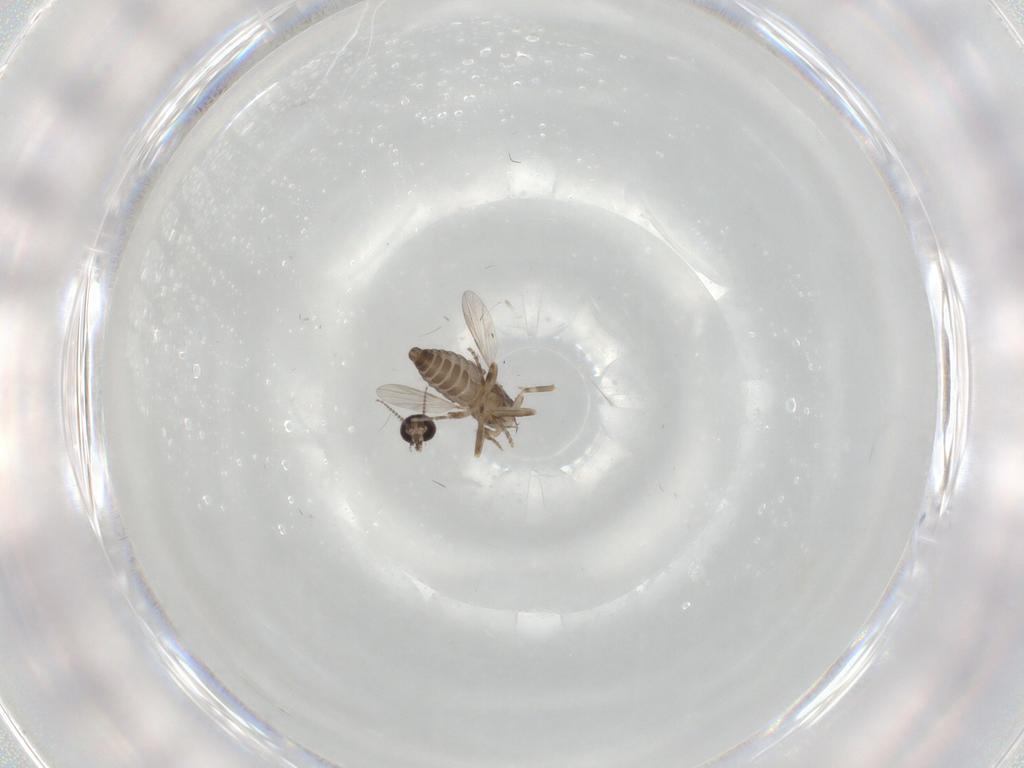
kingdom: Animalia
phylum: Arthropoda
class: Insecta
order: Diptera
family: Ceratopogonidae
